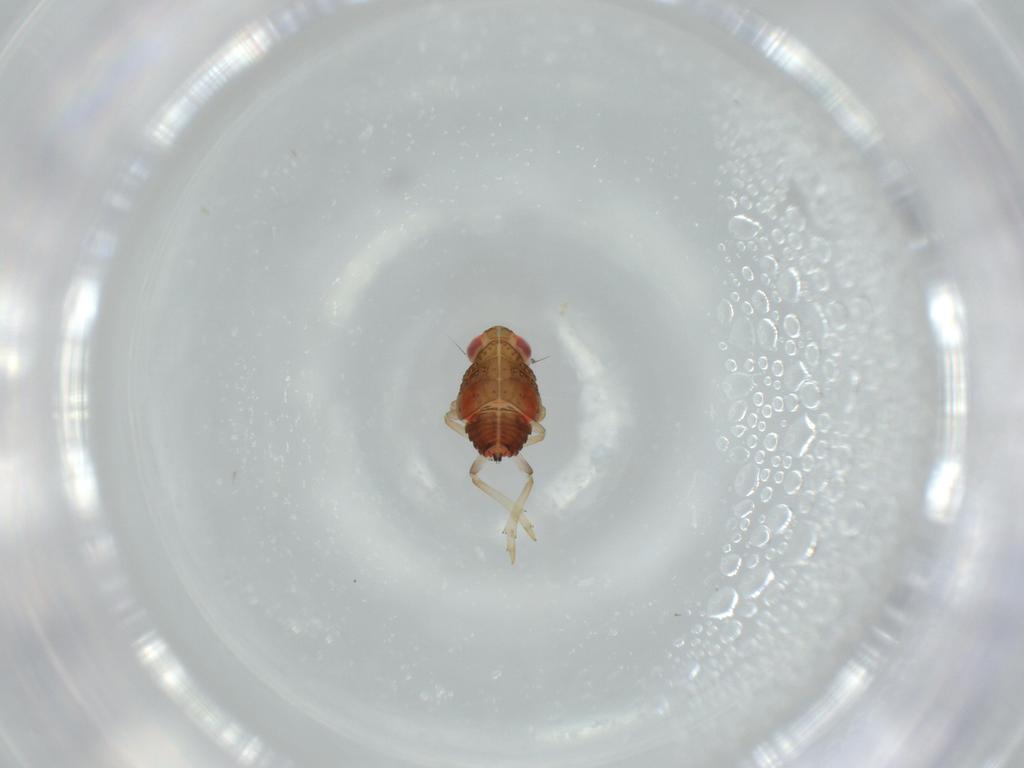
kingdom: Animalia
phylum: Arthropoda
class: Insecta
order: Hemiptera
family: Issidae
